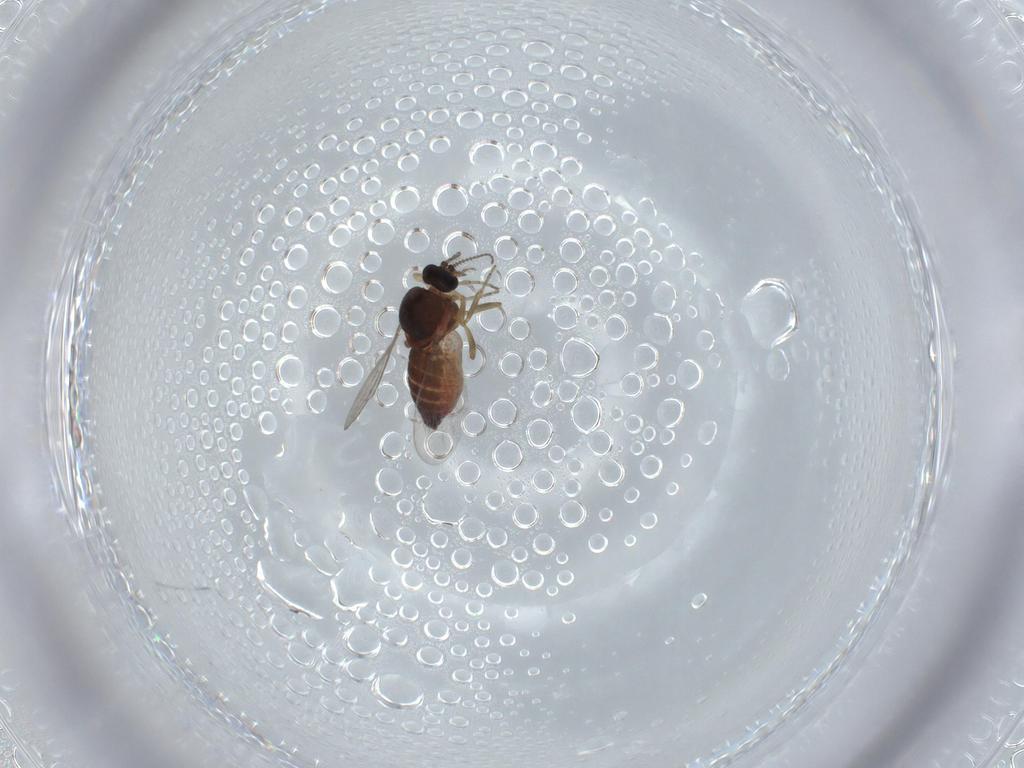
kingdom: Animalia
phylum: Arthropoda
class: Insecta
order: Diptera
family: Ceratopogonidae
